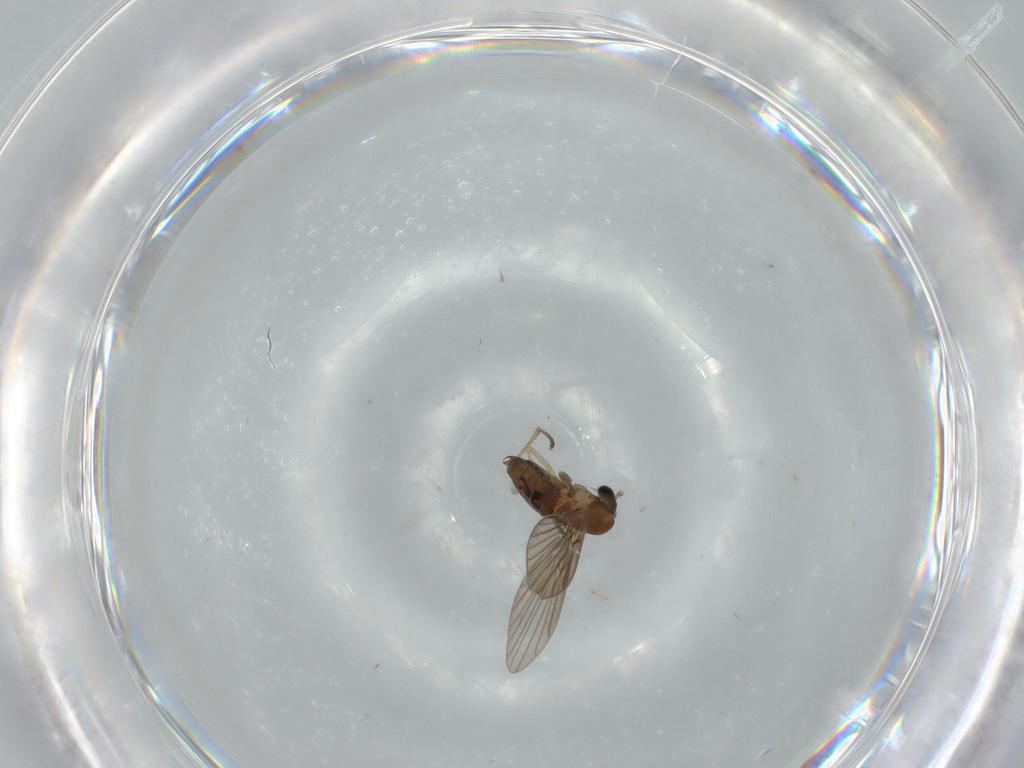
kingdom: Animalia
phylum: Arthropoda
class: Insecta
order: Diptera
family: Psychodidae
